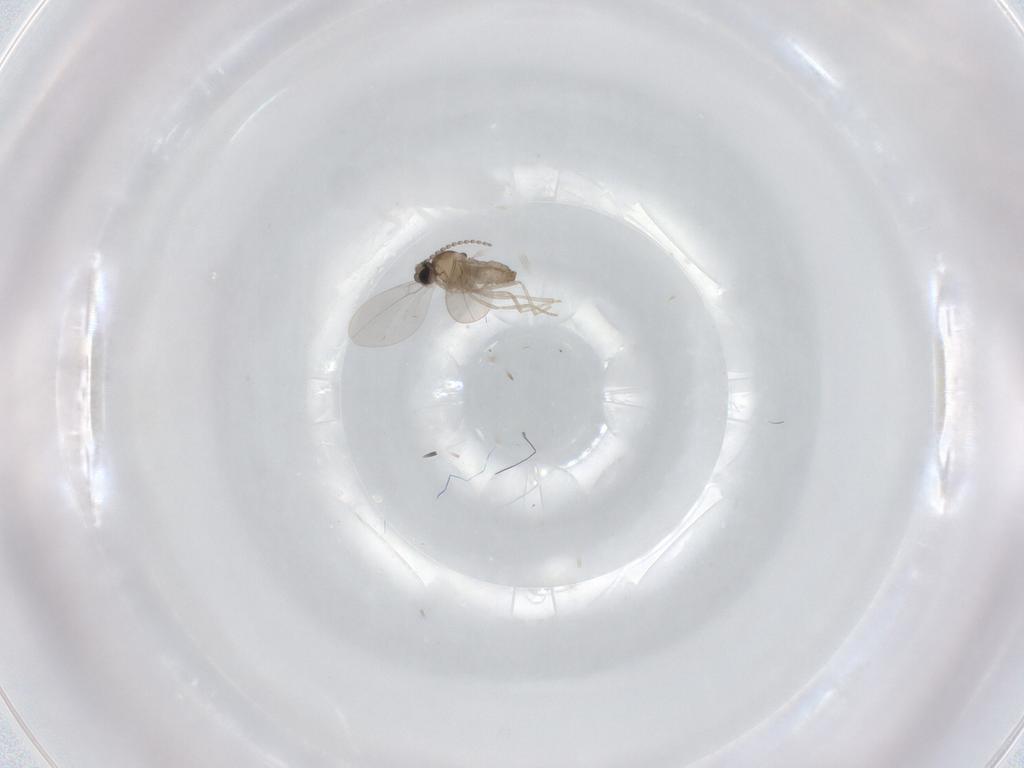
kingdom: Animalia
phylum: Arthropoda
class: Insecta
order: Diptera
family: Cecidomyiidae
